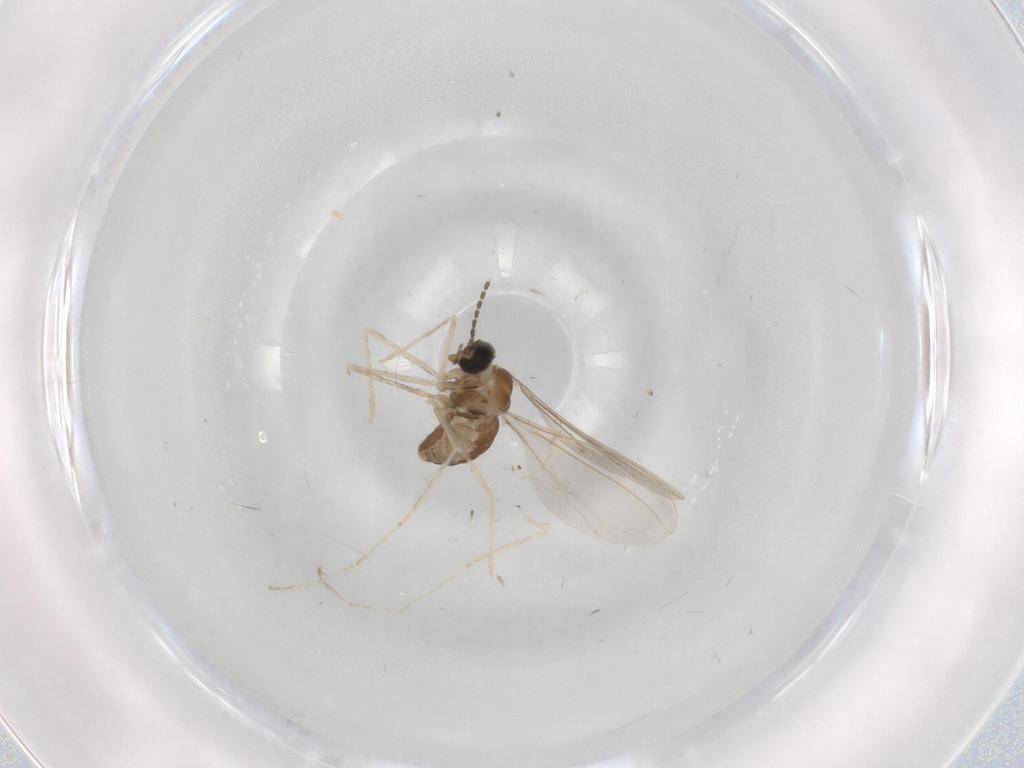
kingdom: Animalia
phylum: Arthropoda
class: Insecta
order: Diptera
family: Cecidomyiidae
